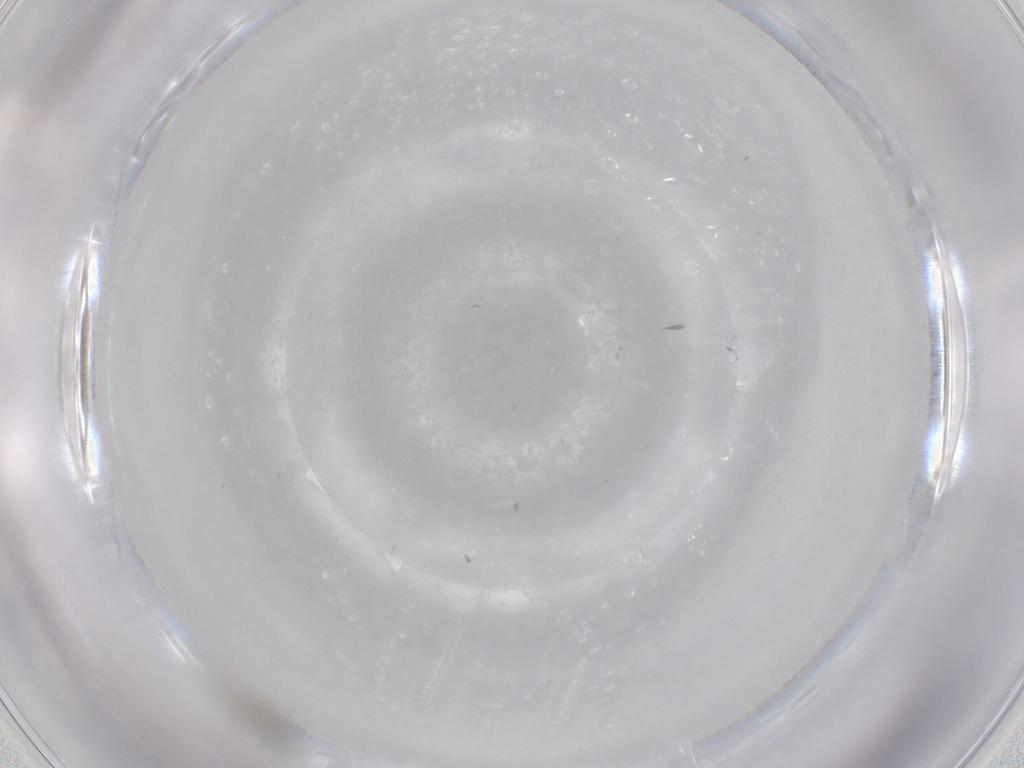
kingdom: Animalia
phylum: Arthropoda
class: Insecta
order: Diptera
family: Cecidomyiidae
